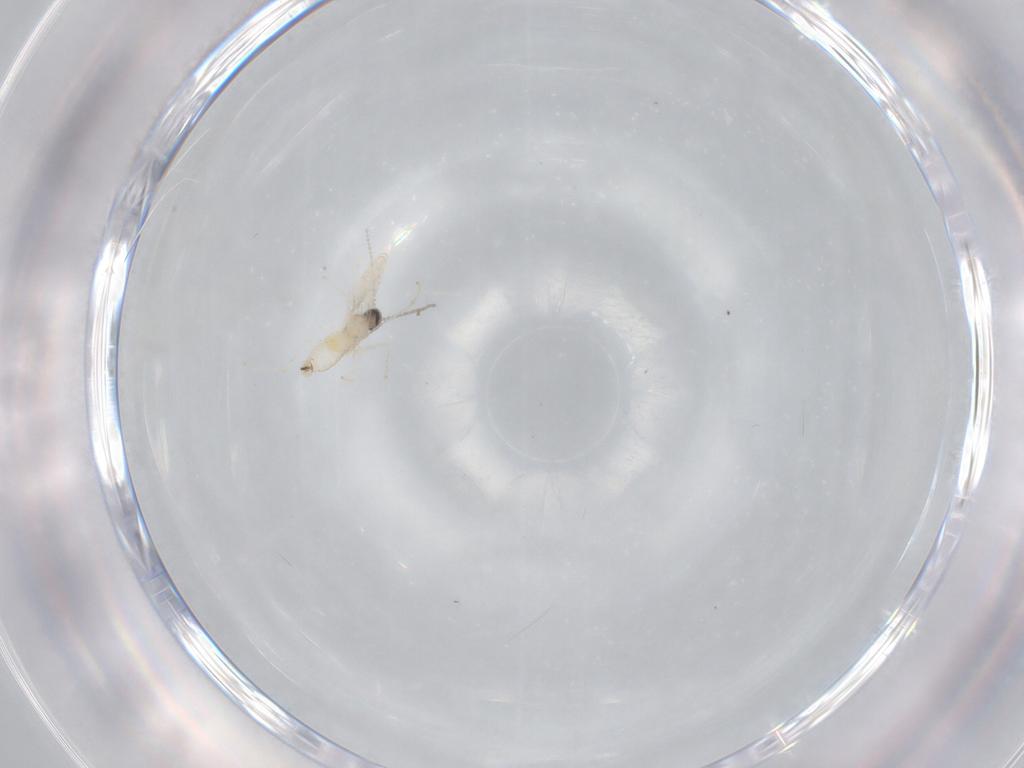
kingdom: Animalia
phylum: Arthropoda
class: Insecta
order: Diptera
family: Cecidomyiidae
